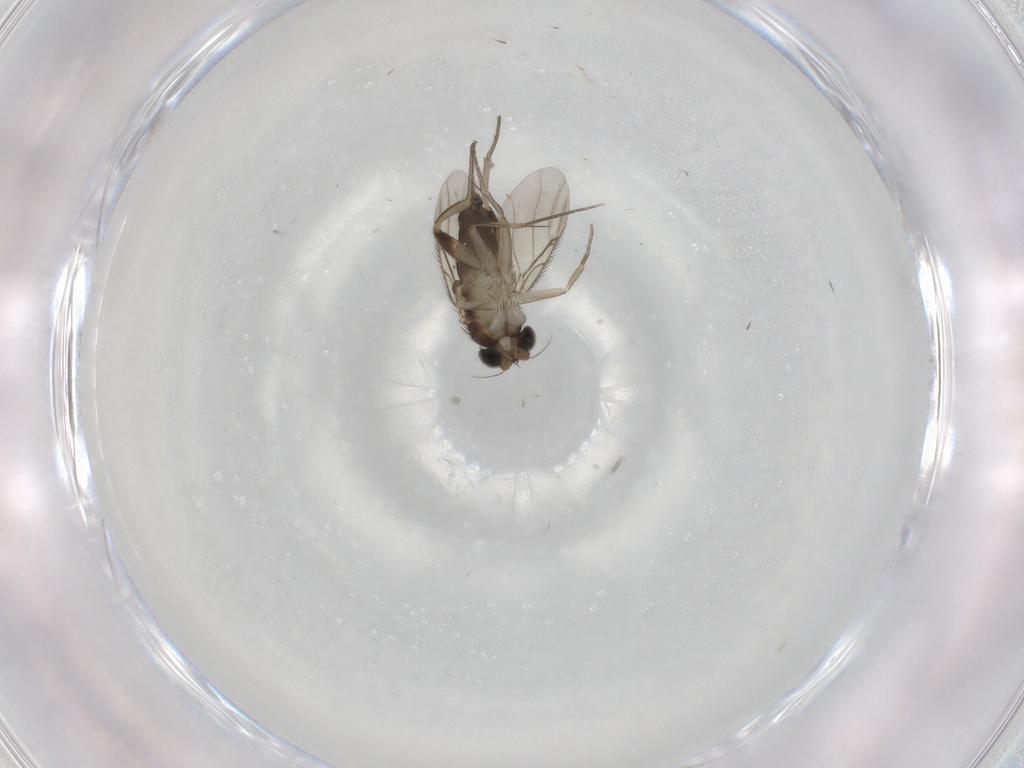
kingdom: Animalia
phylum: Arthropoda
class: Insecta
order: Diptera
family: Phoridae
